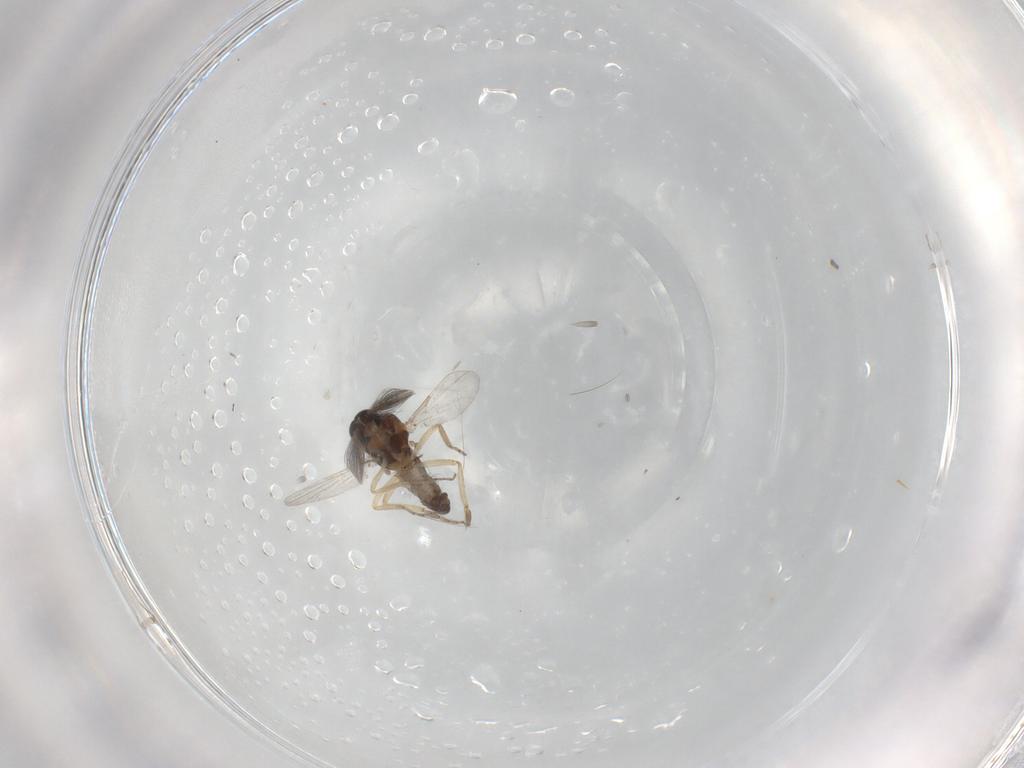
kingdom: Animalia
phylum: Arthropoda
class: Insecta
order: Diptera
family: Ceratopogonidae
